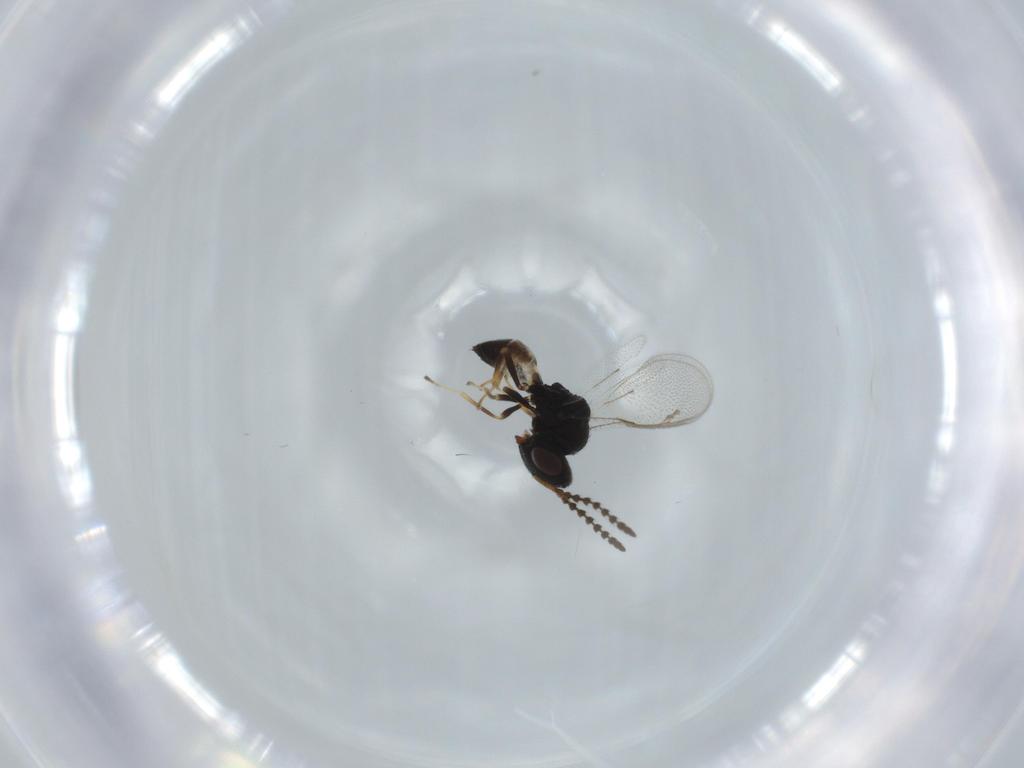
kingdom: Animalia
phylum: Arthropoda
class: Insecta
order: Hymenoptera
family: Pteromalidae
